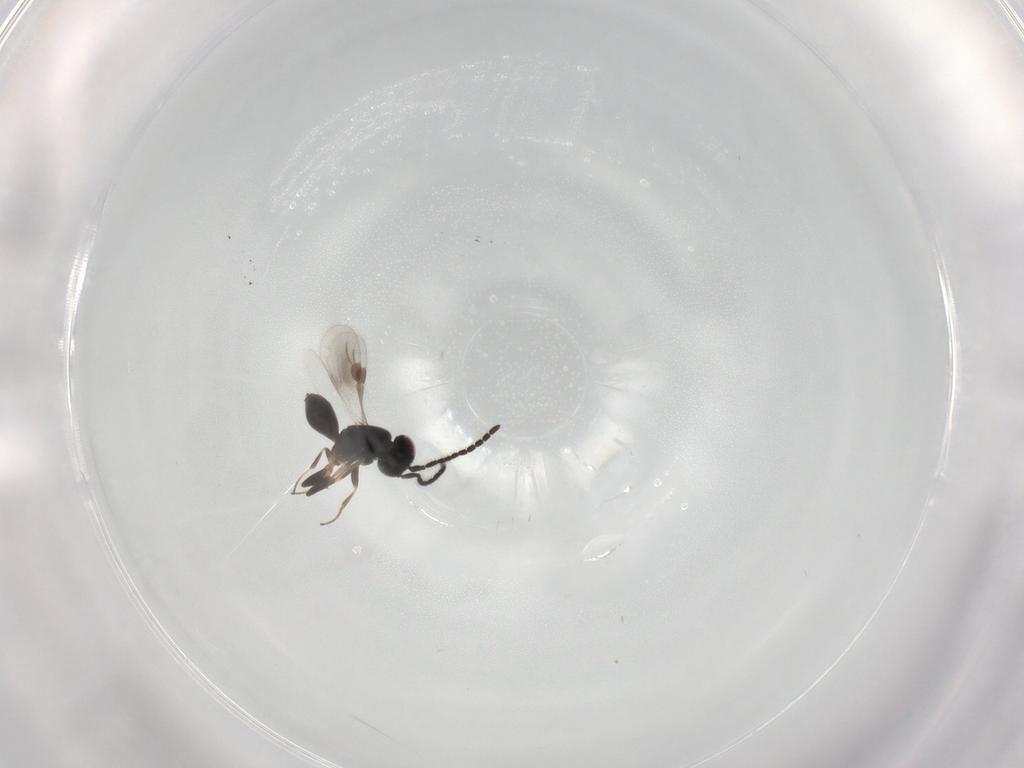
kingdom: Animalia
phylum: Arthropoda
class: Insecta
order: Hymenoptera
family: Megaspilidae
